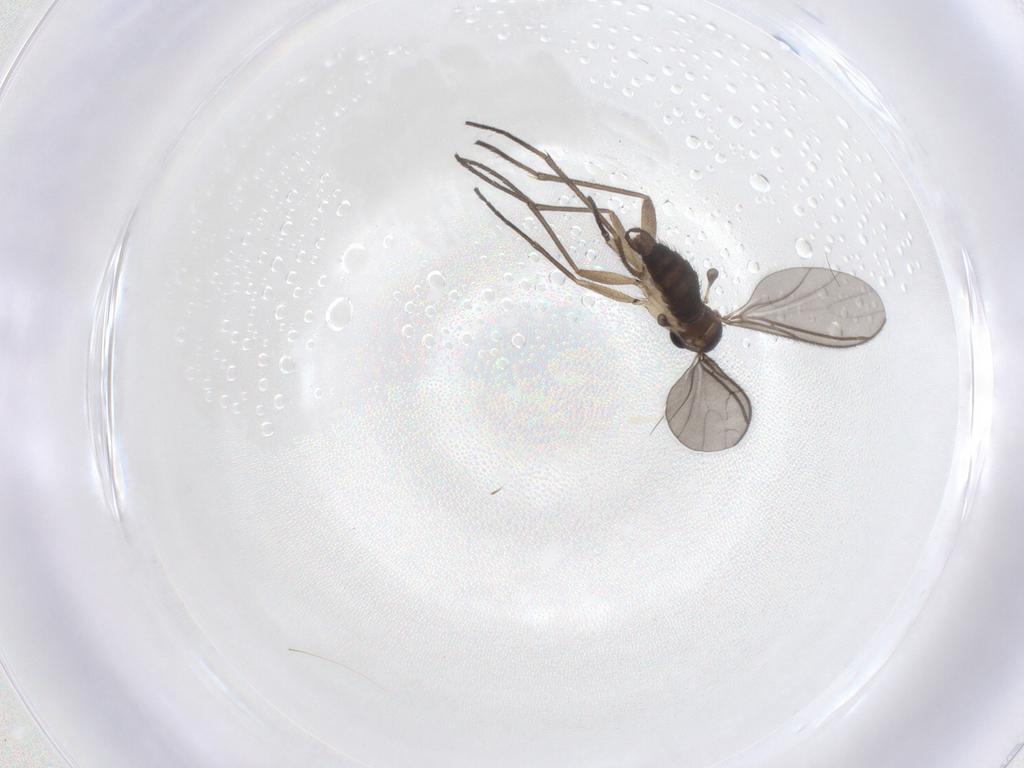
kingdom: Animalia
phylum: Arthropoda
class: Insecta
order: Diptera
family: Sciaridae
